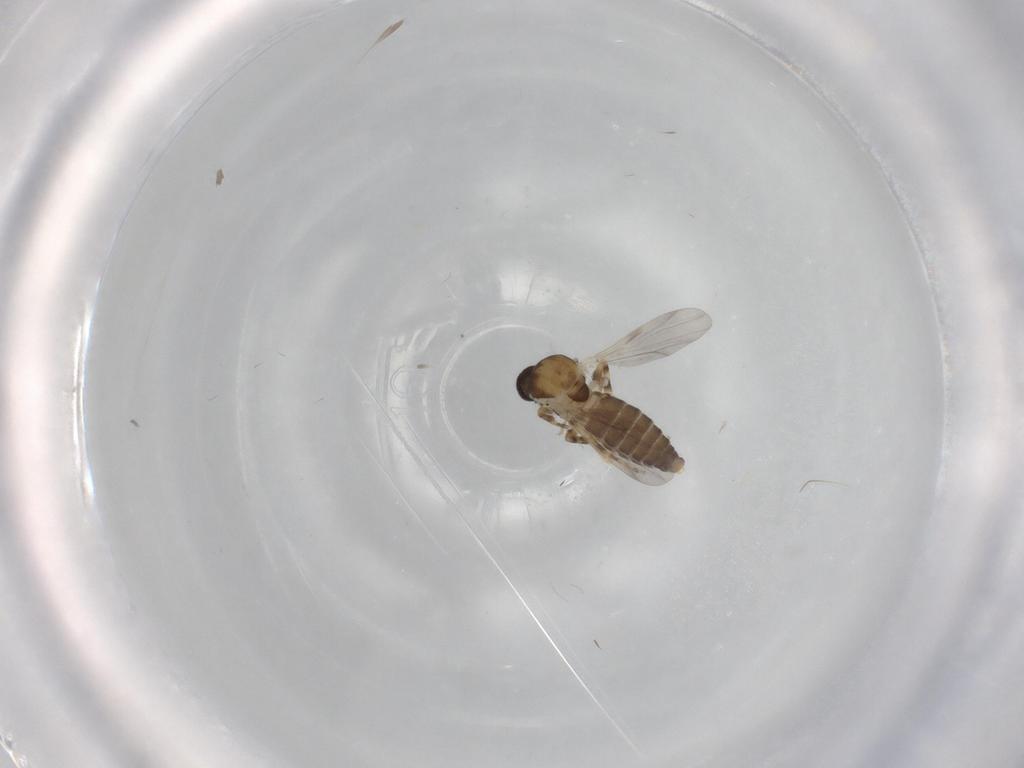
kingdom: Animalia
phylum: Arthropoda
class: Insecta
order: Diptera
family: Ceratopogonidae
